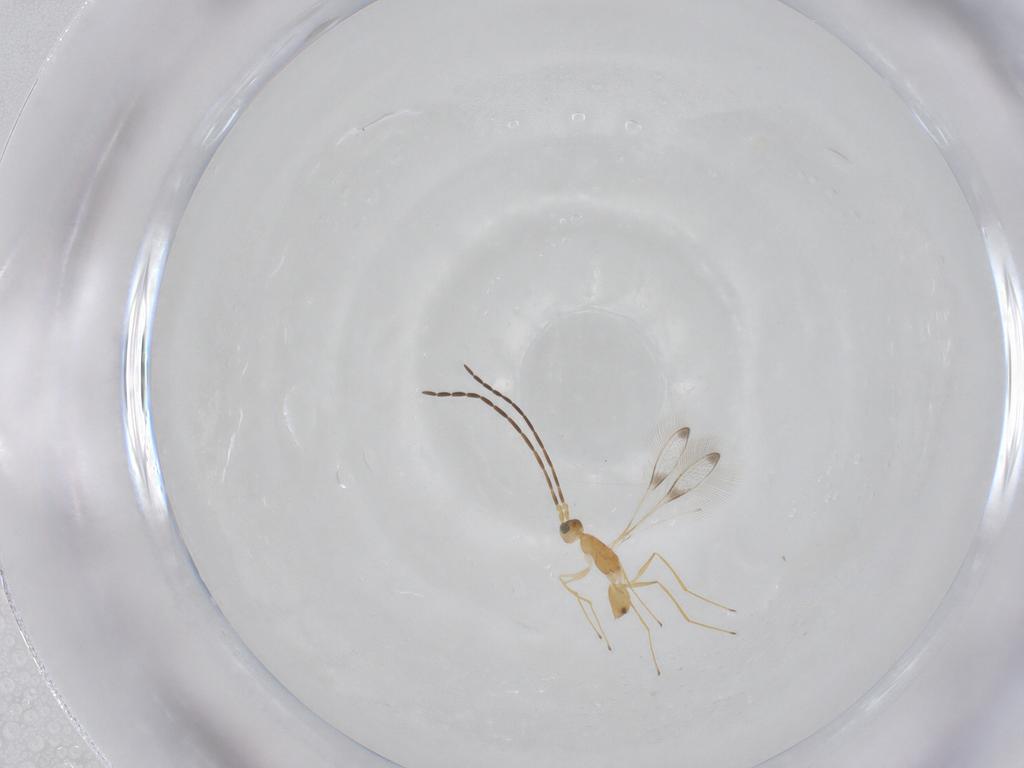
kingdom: Animalia
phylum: Arthropoda
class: Insecta
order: Hymenoptera
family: Mymaridae
